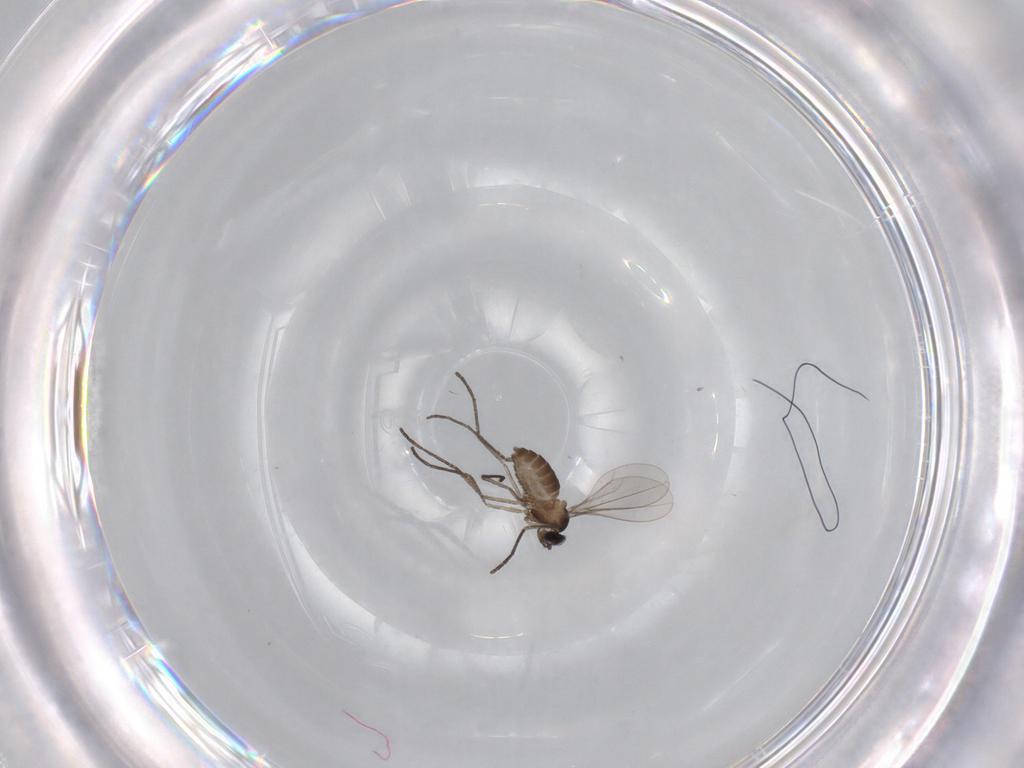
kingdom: Animalia
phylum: Arthropoda
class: Insecta
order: Diptera
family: Cecidomyiidae
